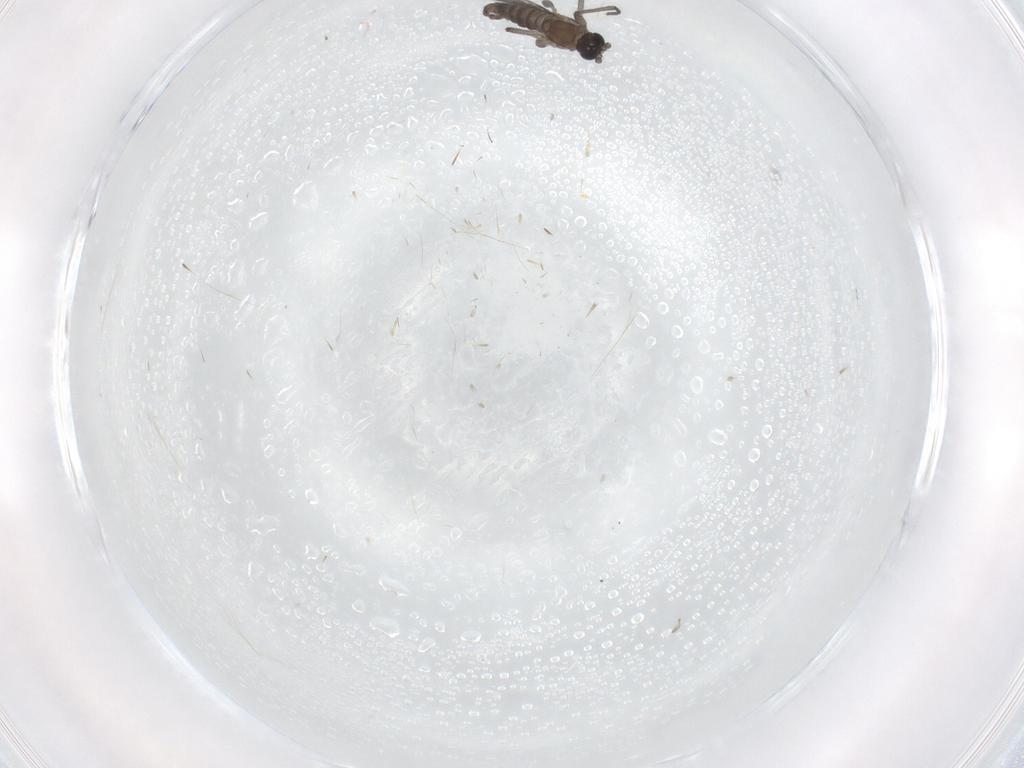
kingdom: Animalia
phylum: Arthropoda
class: Insecta
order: Diptera
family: Sciaridae
